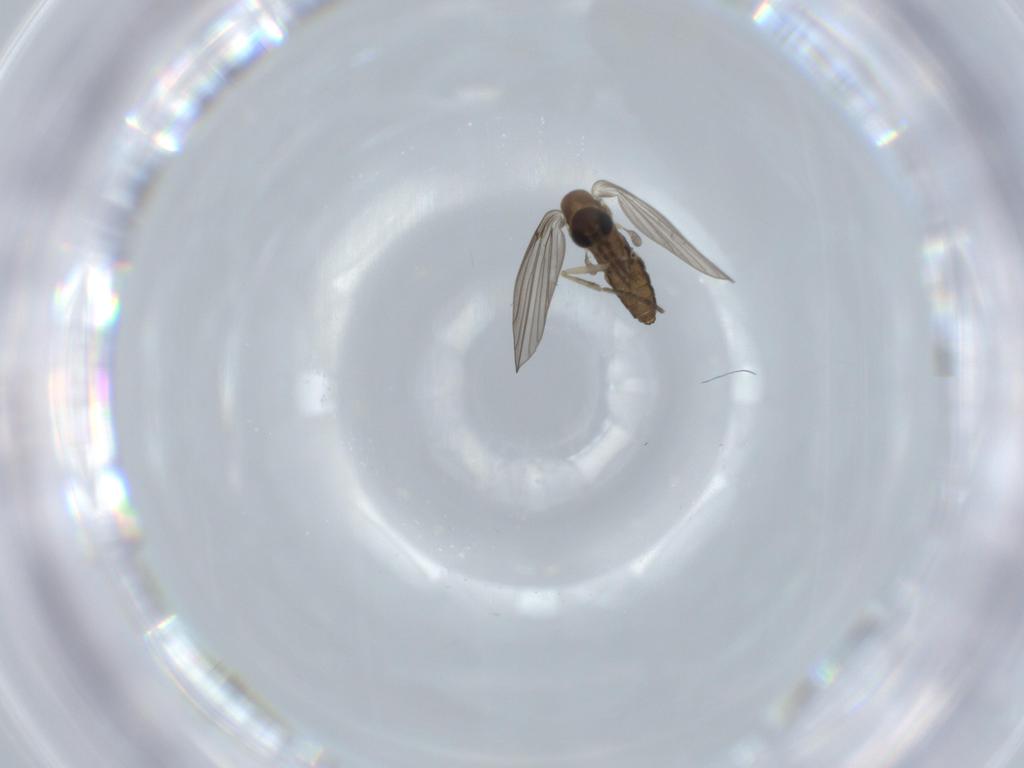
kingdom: Animalia
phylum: Arthropoda
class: Insecta
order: Diptera
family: Psychodidae
